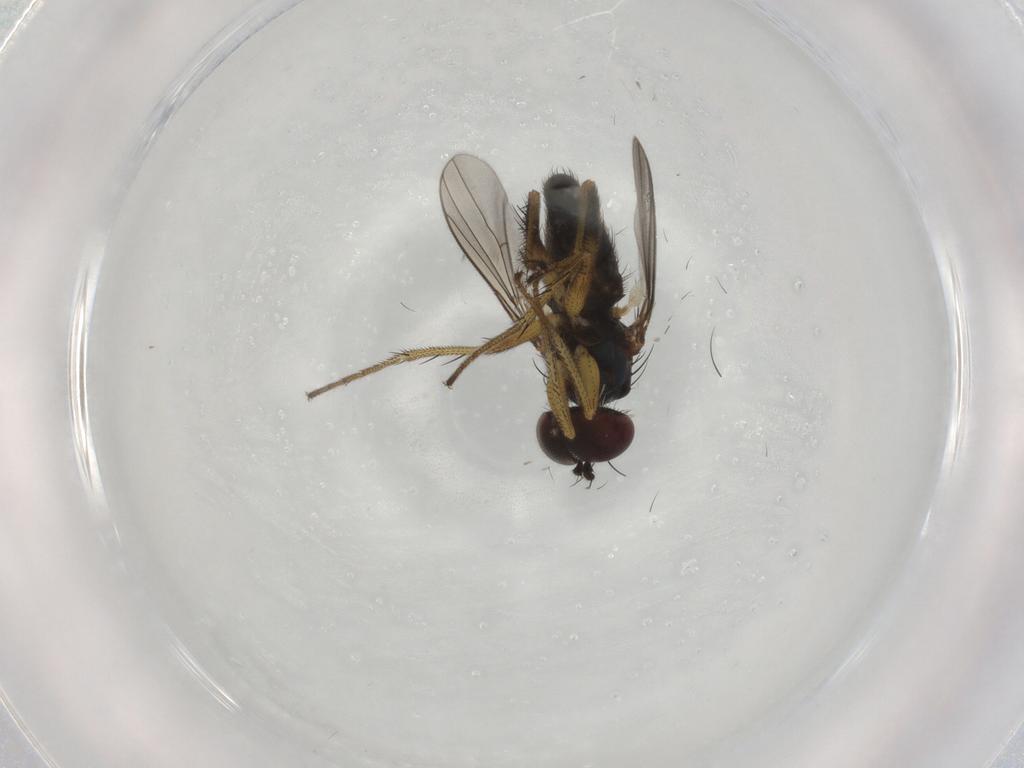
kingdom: Animalia
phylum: Arthropoda
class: Insecta
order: Diptera
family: Dolichopodidae
